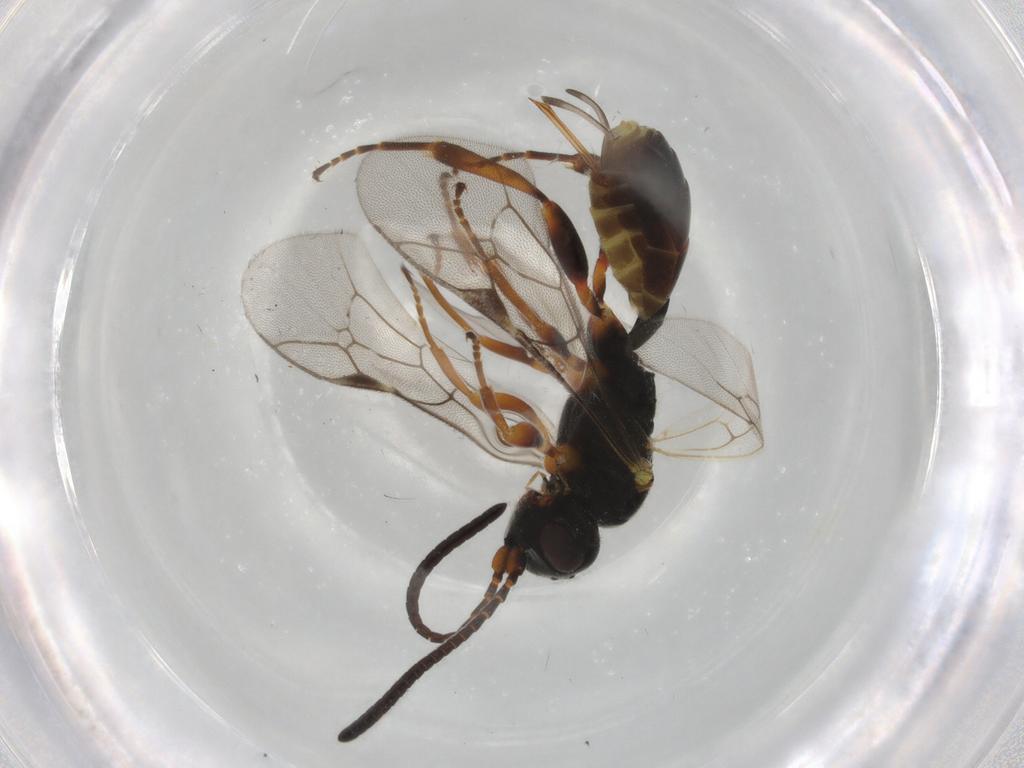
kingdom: Animalia
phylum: Arthropoda
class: Insecta
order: Hymenoptera
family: Ichneumonidae
